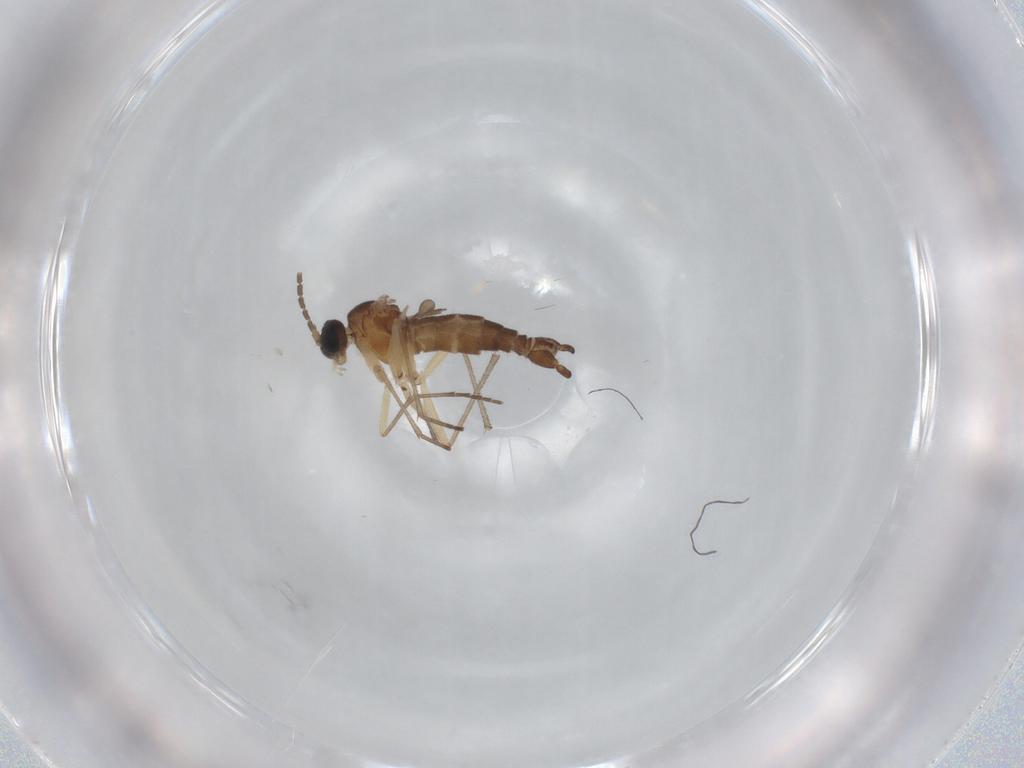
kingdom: Animalia
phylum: Arthropoda
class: Insecta
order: Diptera
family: Sciaridae
